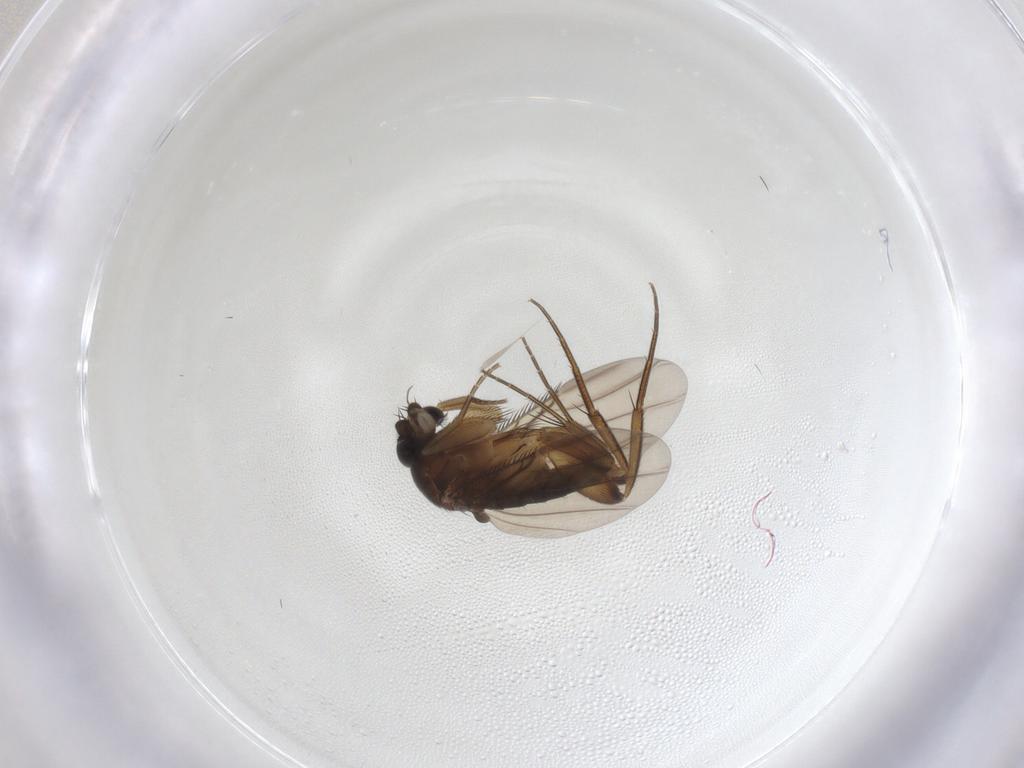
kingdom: Animalia
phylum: Arthropoda
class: Insecta
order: Diptera
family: Phoridae
